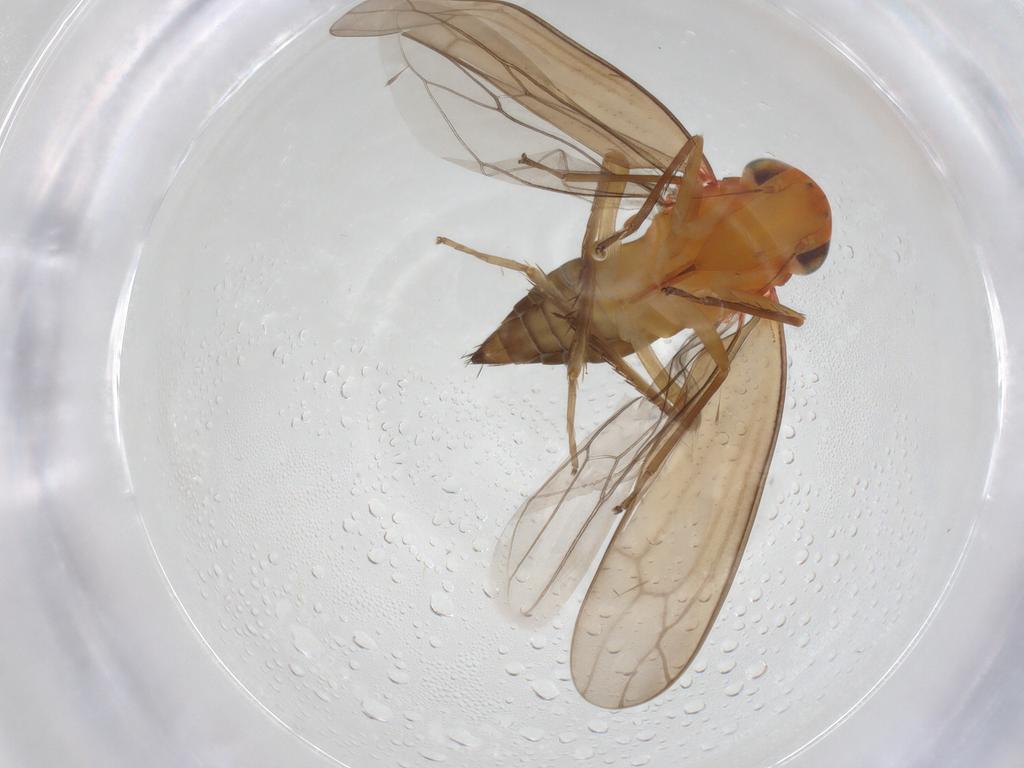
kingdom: Animalia
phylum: Arthropoda
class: Insecta
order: Hemiptera
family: Cicadellidae
